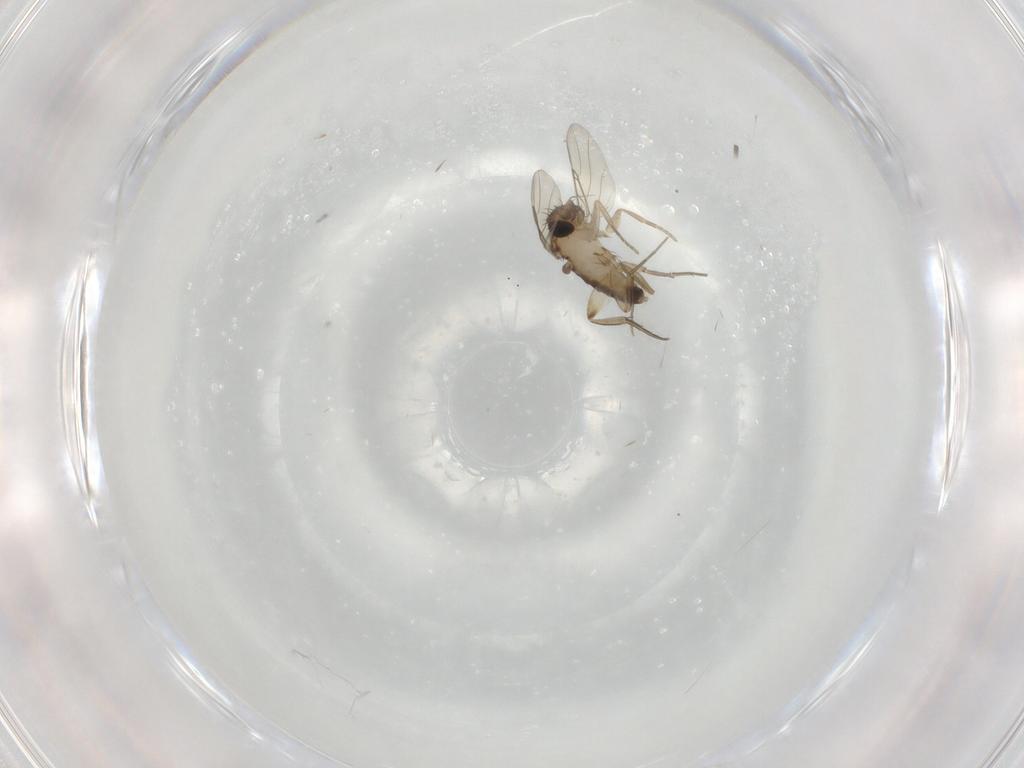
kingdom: Animalia
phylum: Arthropoda
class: Insecta
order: Diptera
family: Phoridae
